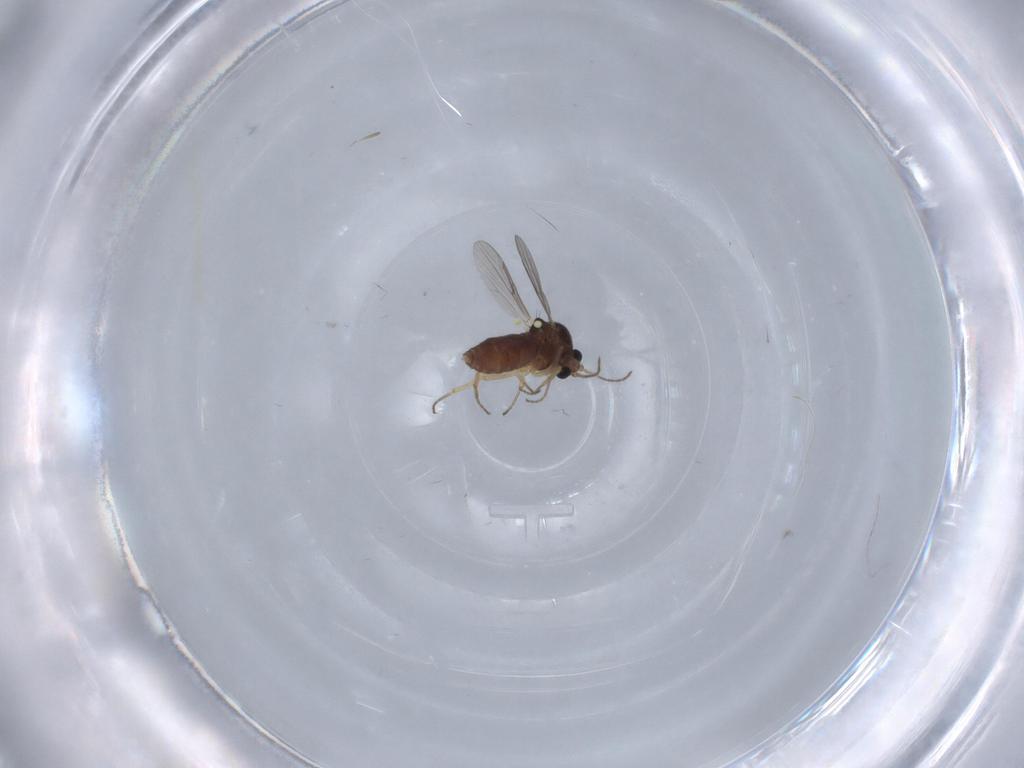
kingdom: Animalia
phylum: Arthropoda
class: Insecta
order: Diptera
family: Ceratopogonidae
